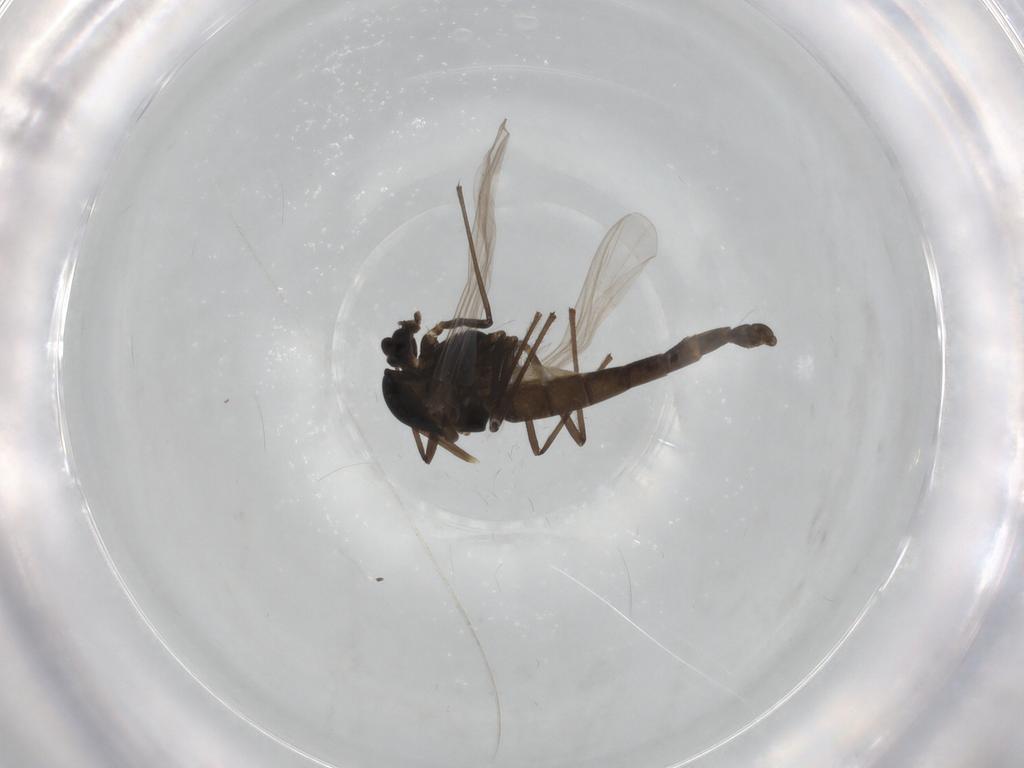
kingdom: Animalia
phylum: Arthropoda
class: Insecta
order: Diptera
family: Chironomidae
